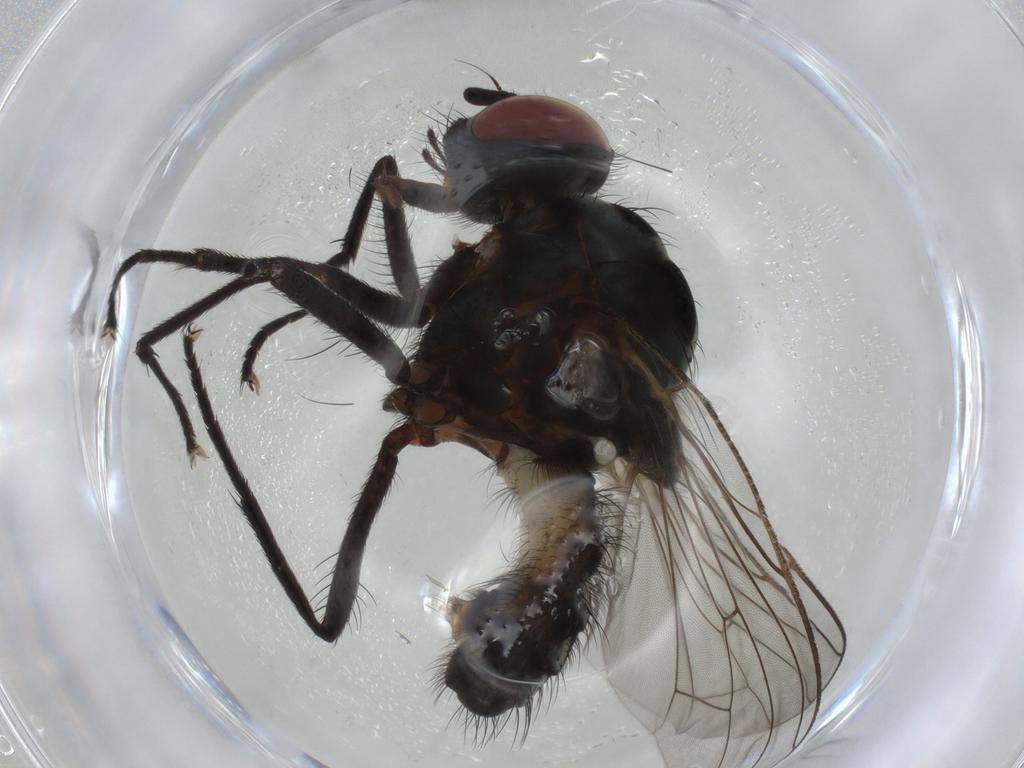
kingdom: Animalia
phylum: Arthropoda
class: Insecta
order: Diptera
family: Anthomyiidae
